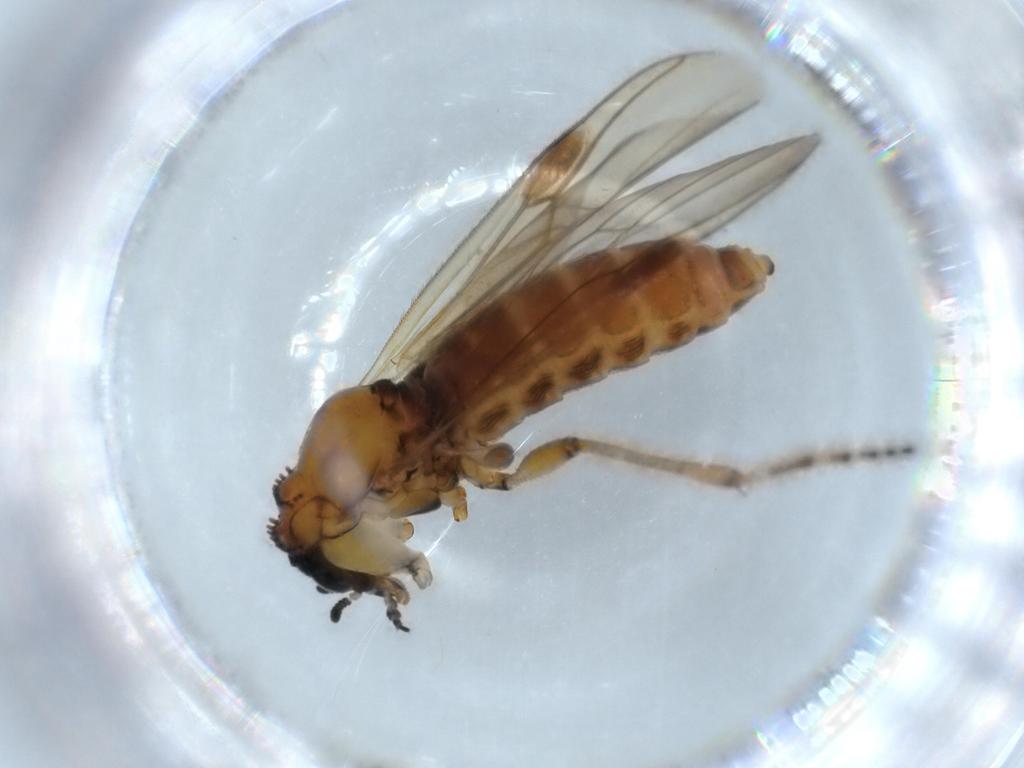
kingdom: Animalia
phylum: Arthropoda
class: Insecta
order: Diptera
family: Bibionidae
